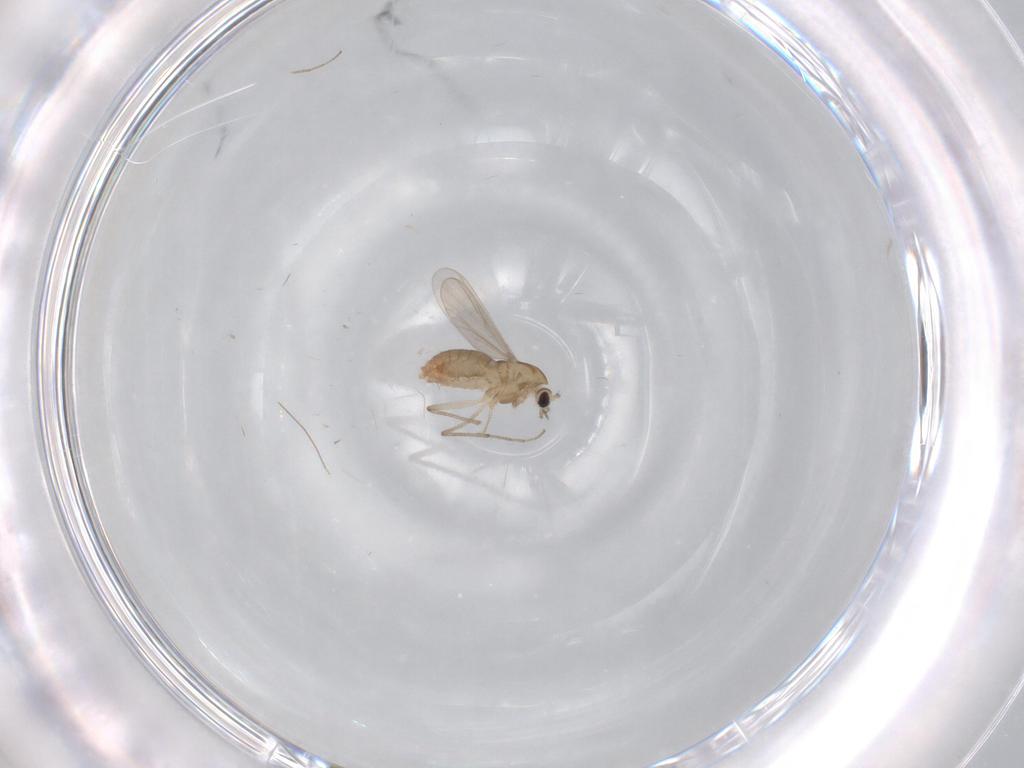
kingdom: Animalia
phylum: Arthropoda
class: Insecta
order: Diptera
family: Chironomidae
